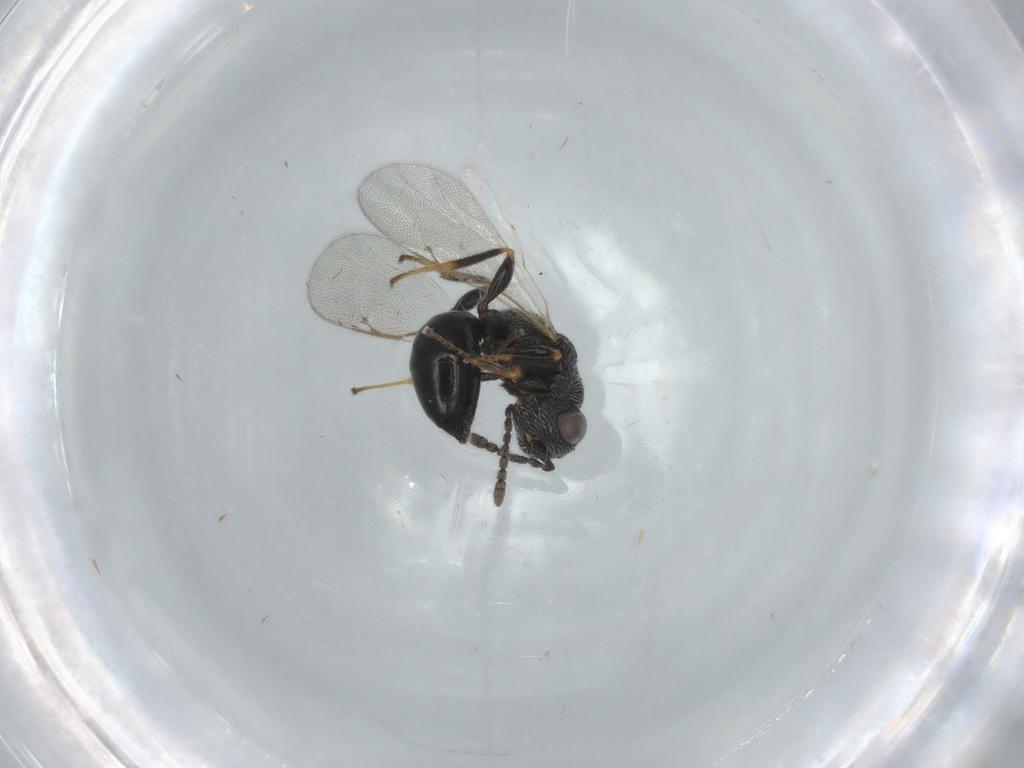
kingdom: Animalia
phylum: Arthropoda
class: Insecta
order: Hymenoptera
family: Eurytomidae
